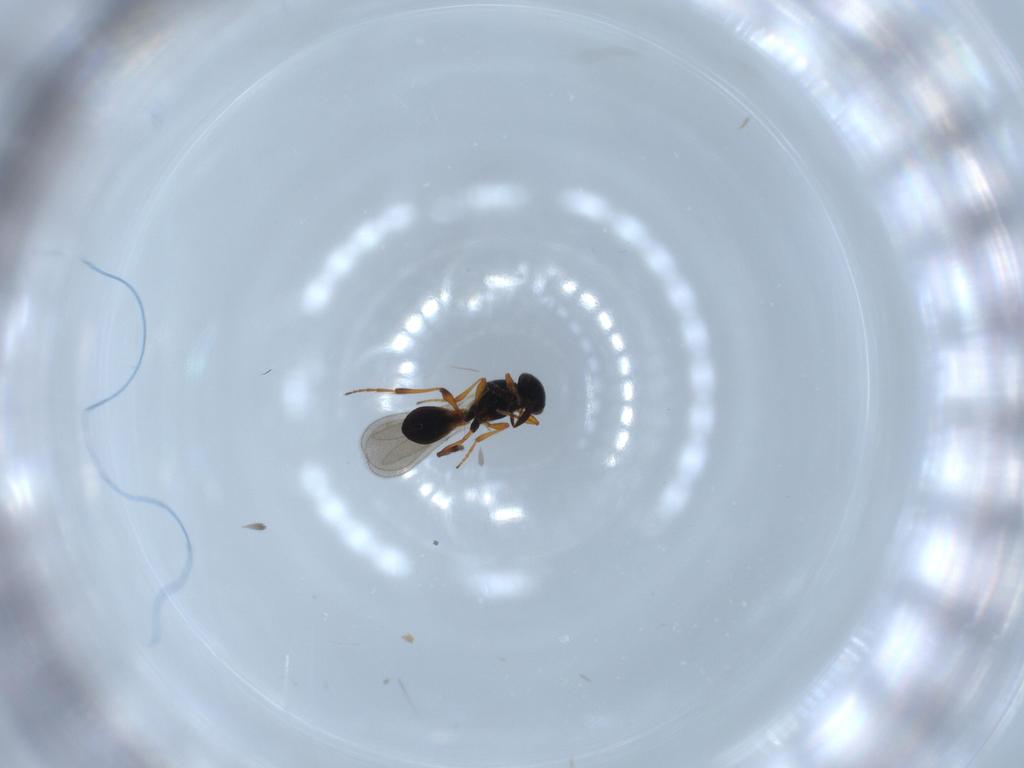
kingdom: Animalia
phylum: Arthropoda
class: Insecta
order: Hymenoptera
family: Platygastridae
